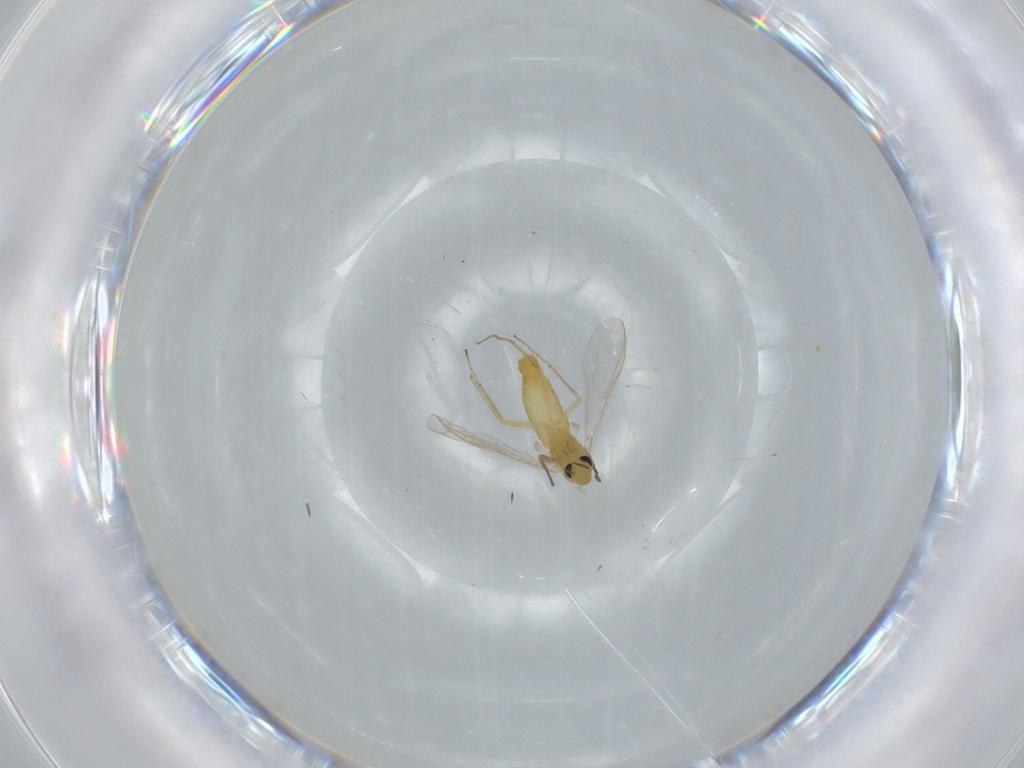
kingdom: Animalia
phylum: Arthropoda
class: Insecta
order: Diptera
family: Chironomidae
